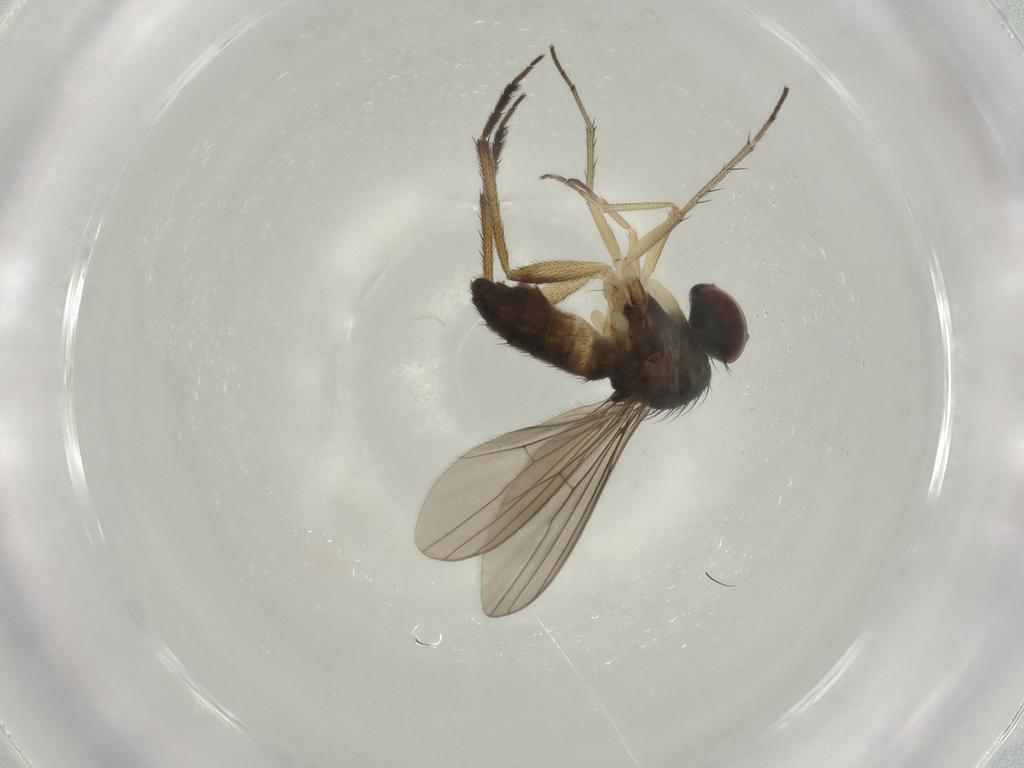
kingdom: Animalia
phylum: Arthropoda
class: Insecta
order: Diptera
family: Dolichopodidae
